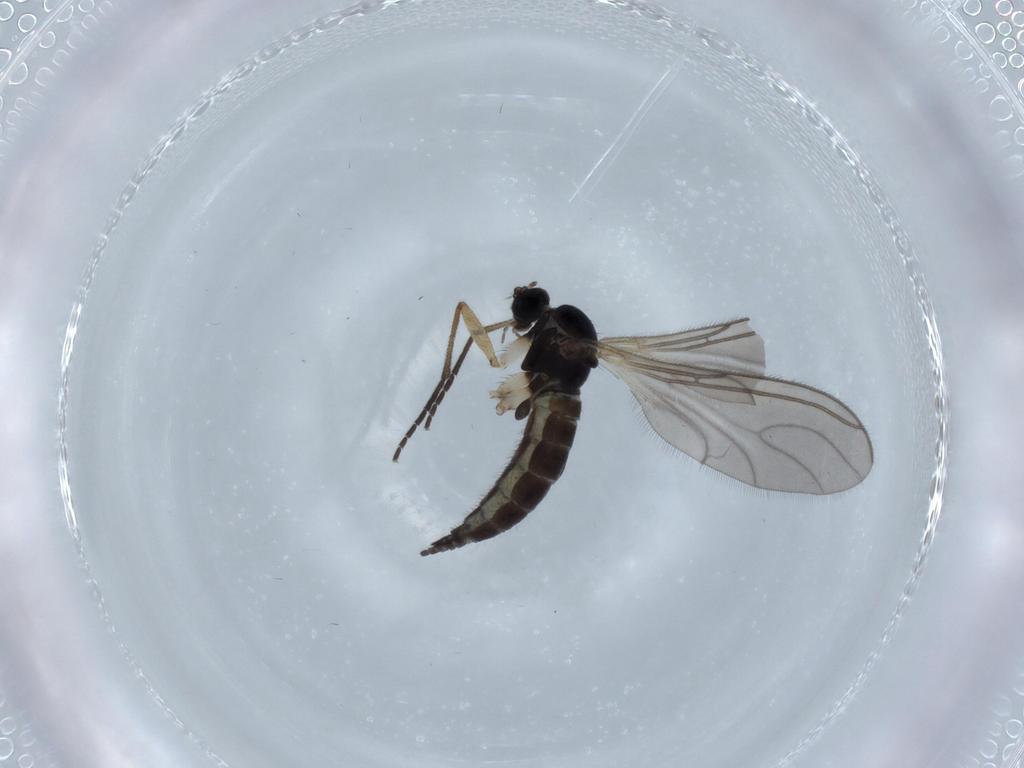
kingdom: Animalia
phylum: Arthropoda
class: Insecta
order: Diptera
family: Sciaridae
